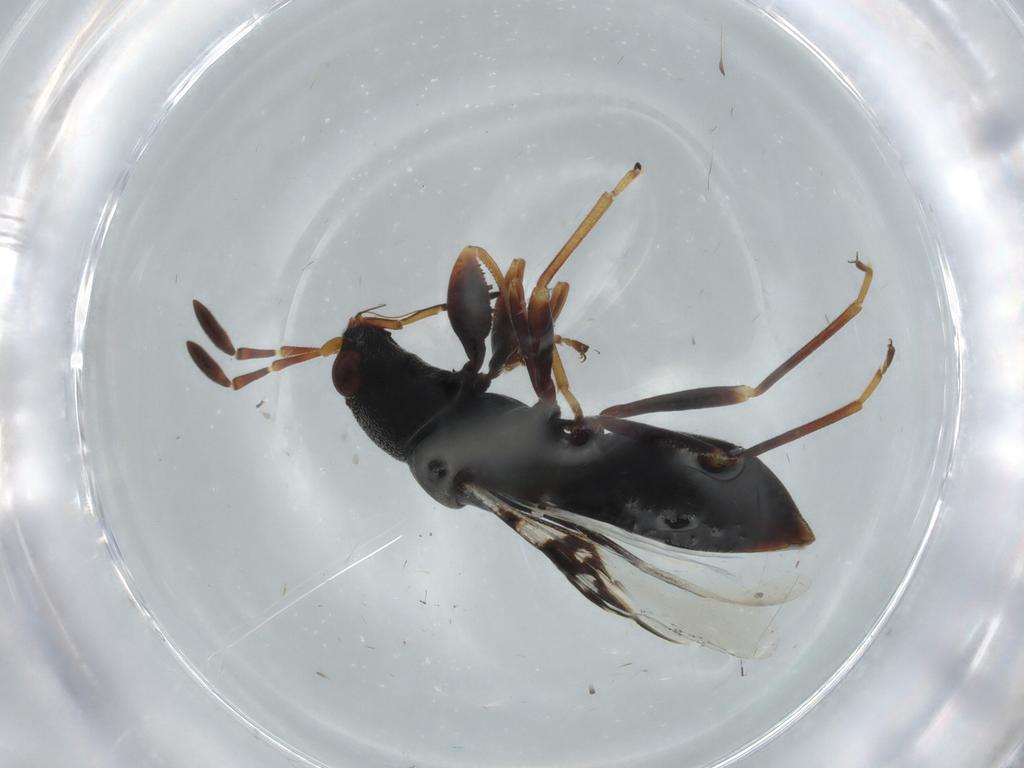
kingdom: Animalia
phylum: Arthropoda
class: Insecta
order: Hemiptera
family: Rhyparochromidae
